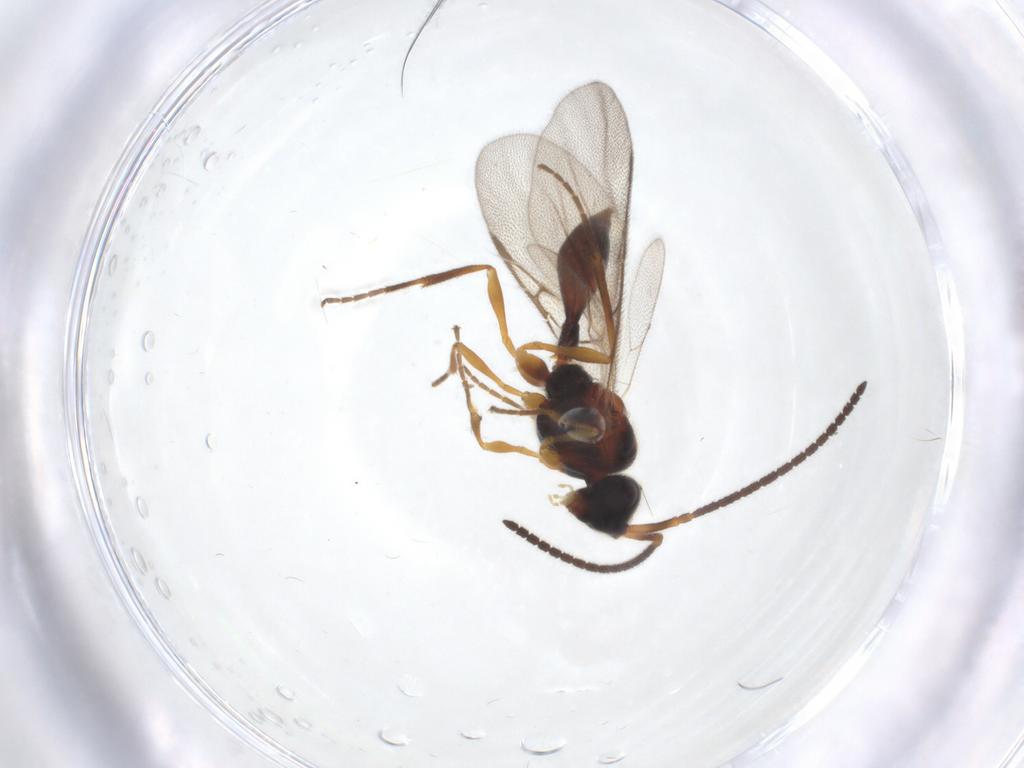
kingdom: Animalia
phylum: Arthropoda
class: Insecta
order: Hymenoptera
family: Diapriidae
